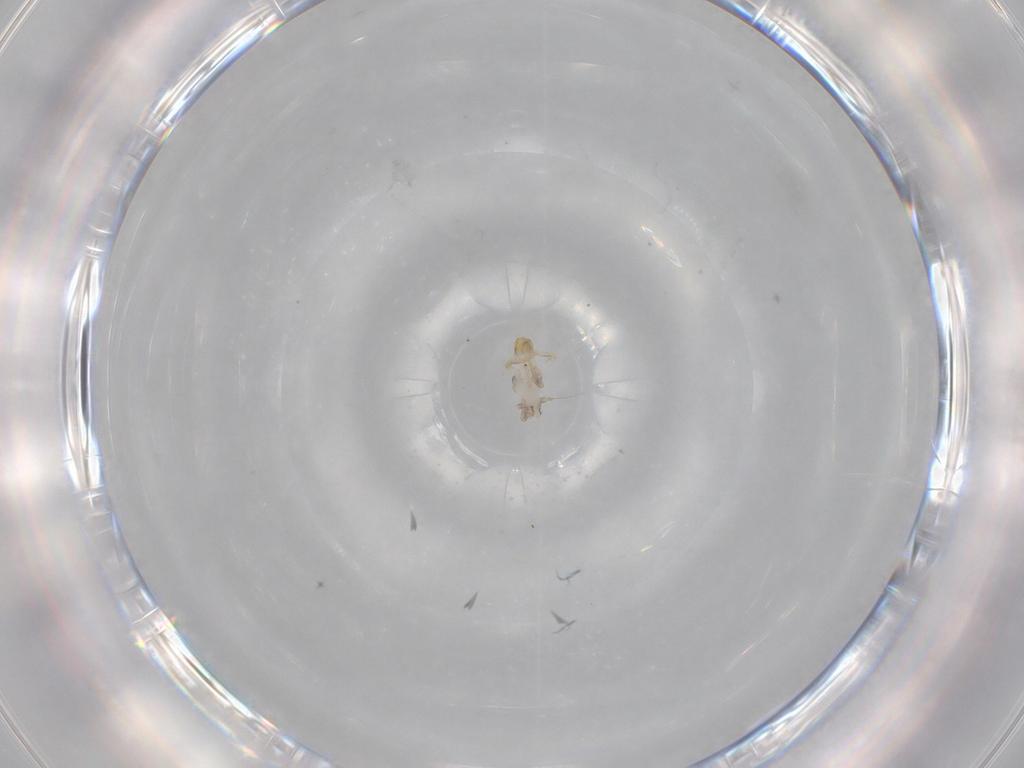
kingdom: Animalia
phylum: Arthropoda
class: Insecta
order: Hemiptera
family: Delphacidae
